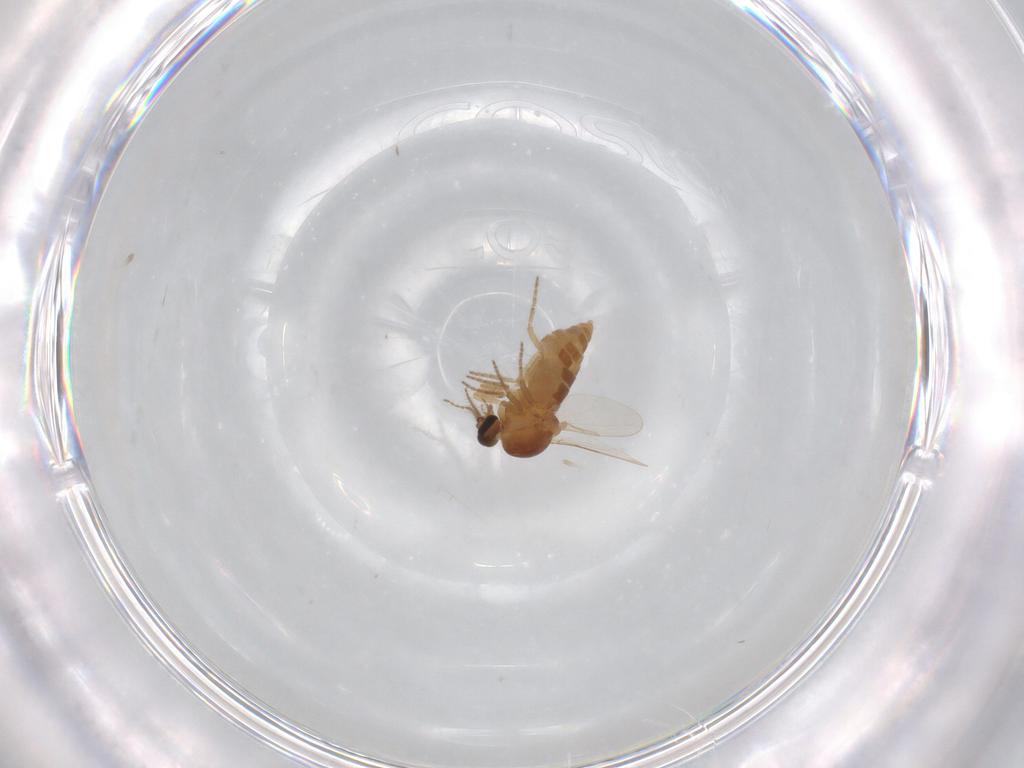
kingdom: Animalia
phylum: Arthropoda
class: Insecta
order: Diptera
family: Ceratopogonidae
